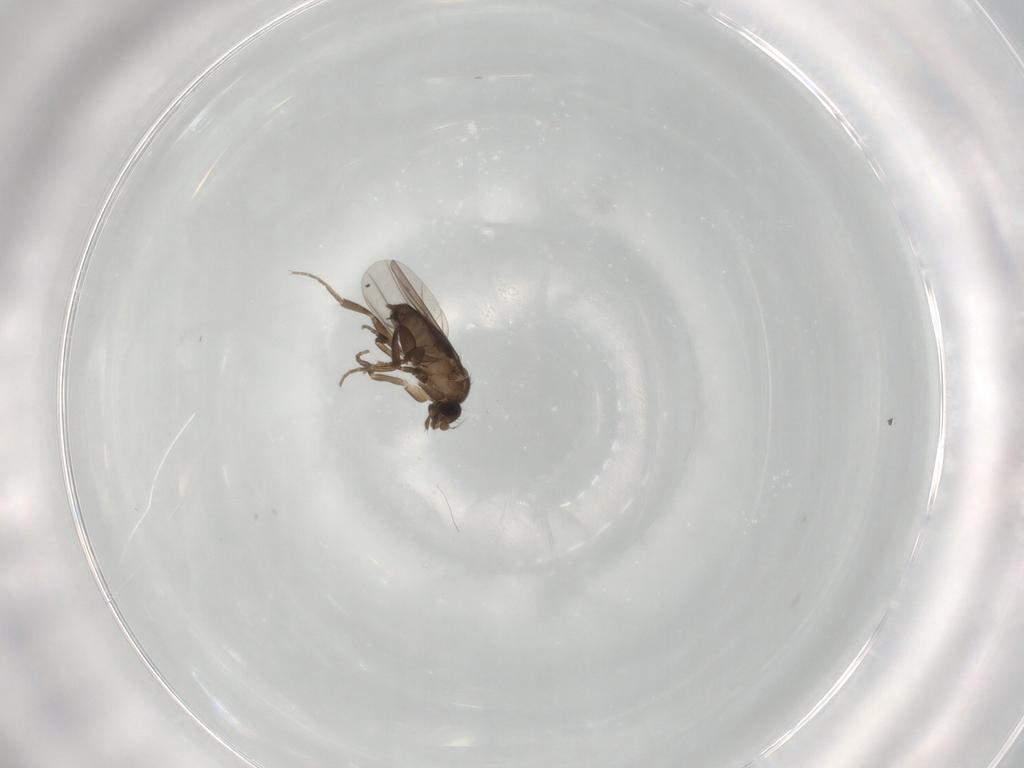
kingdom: Animalia
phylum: Arthropoda
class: Insecta
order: Diptera
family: Phoridae
